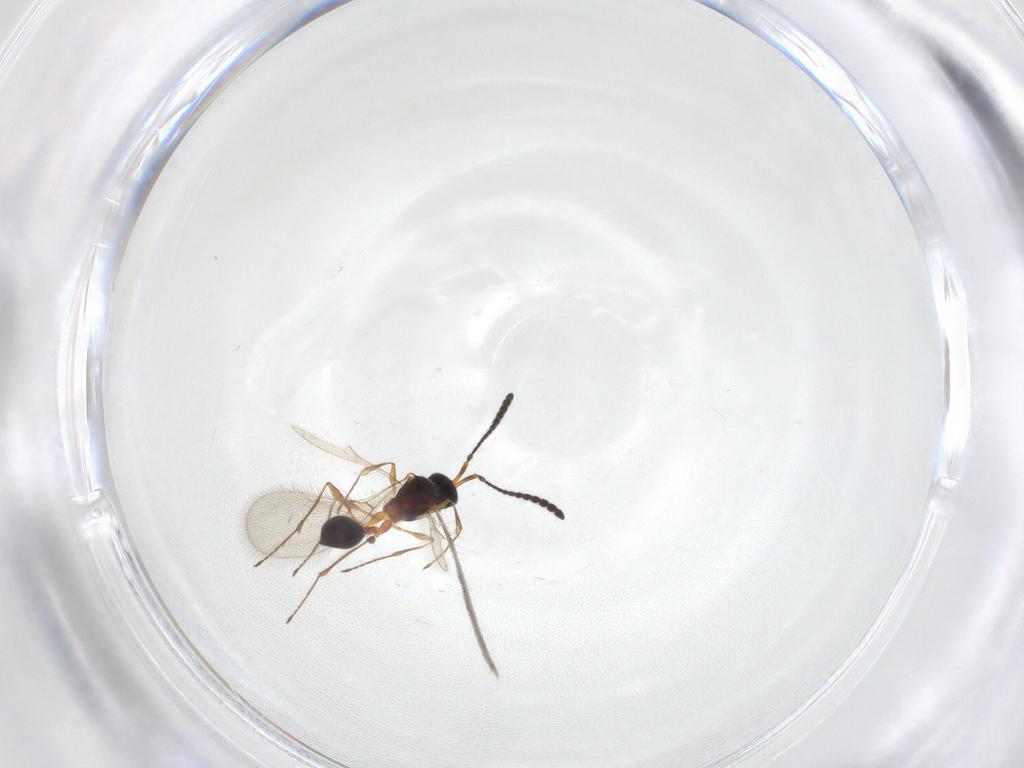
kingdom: Animalia
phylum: Arthropoda
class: Insecta
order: Hymenoptera
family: Diapriidae
